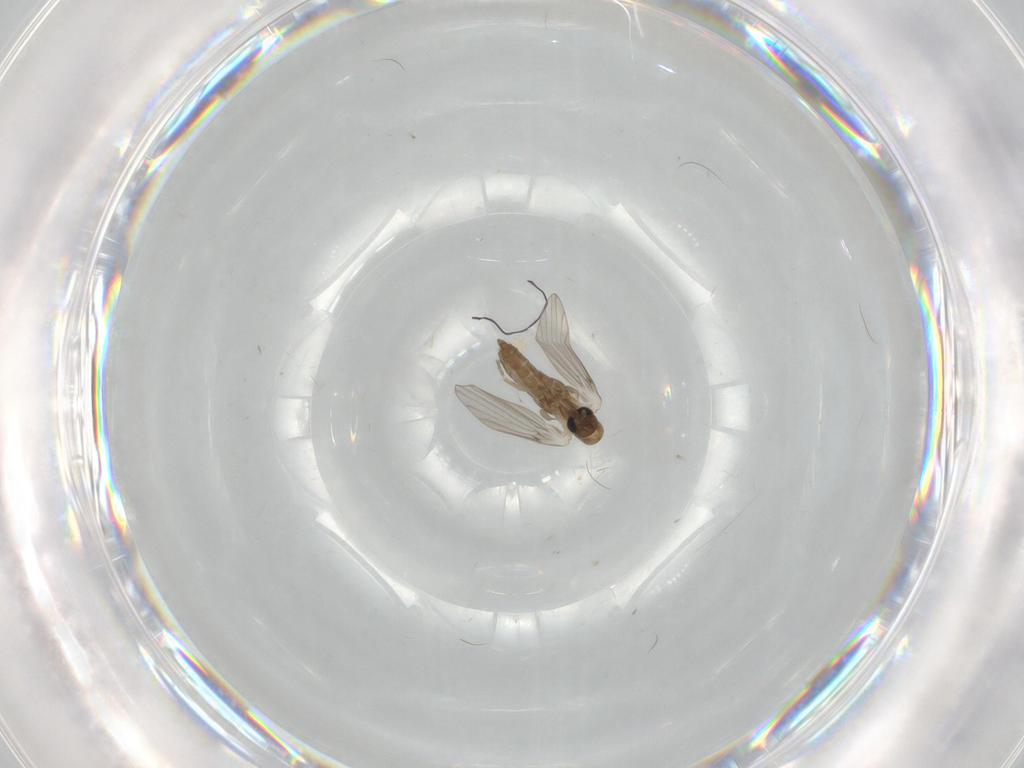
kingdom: Animalia
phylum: Arthropoda
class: Insecta
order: Diptera
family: Psychodidae
